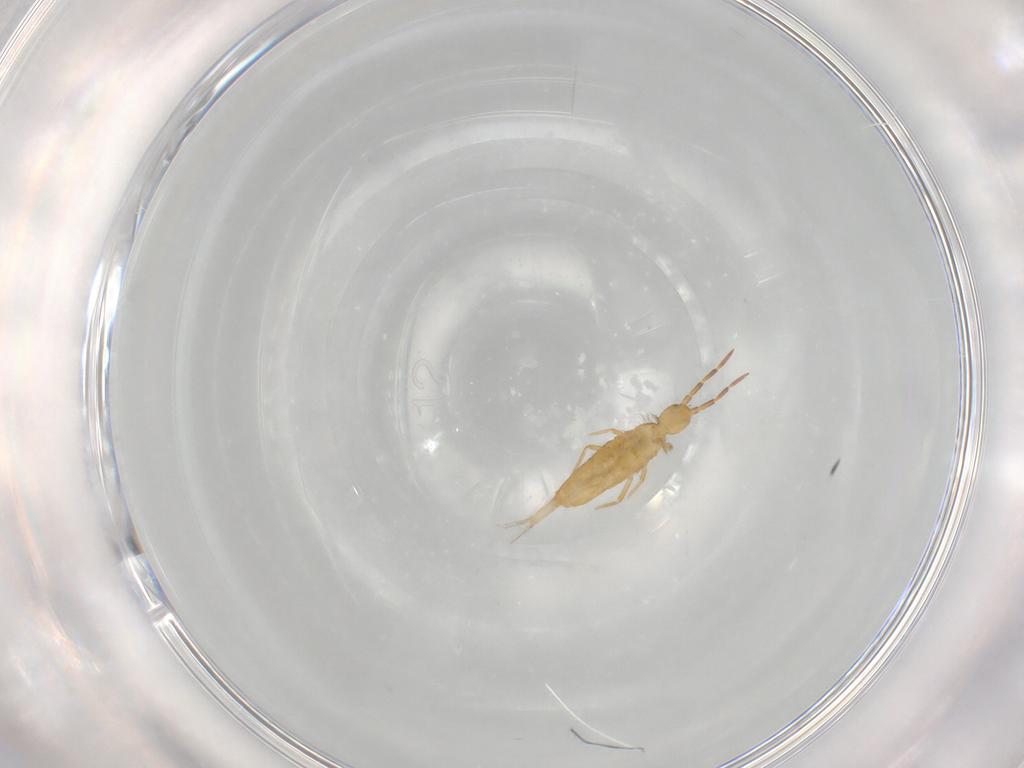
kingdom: Animalia
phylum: Arthropoda
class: Collembola
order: Entomobryomorpha
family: Entomobryidae
